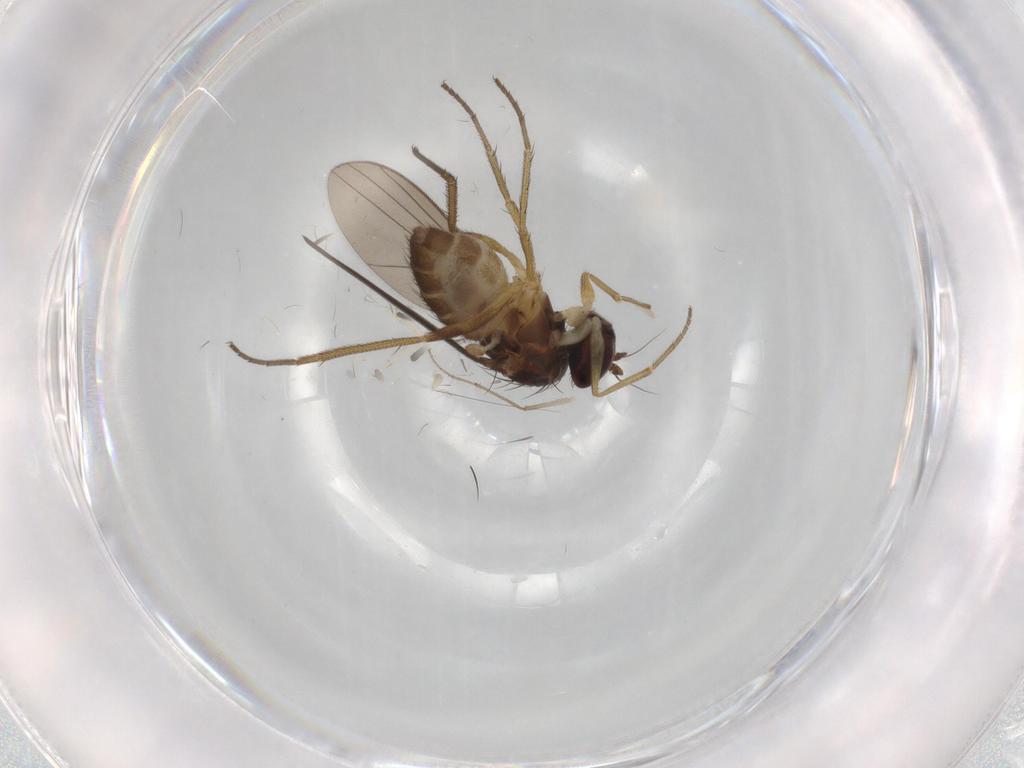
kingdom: Animalia
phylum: Arthropoda
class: Insecta
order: Diptera
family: Dolichopodidae
